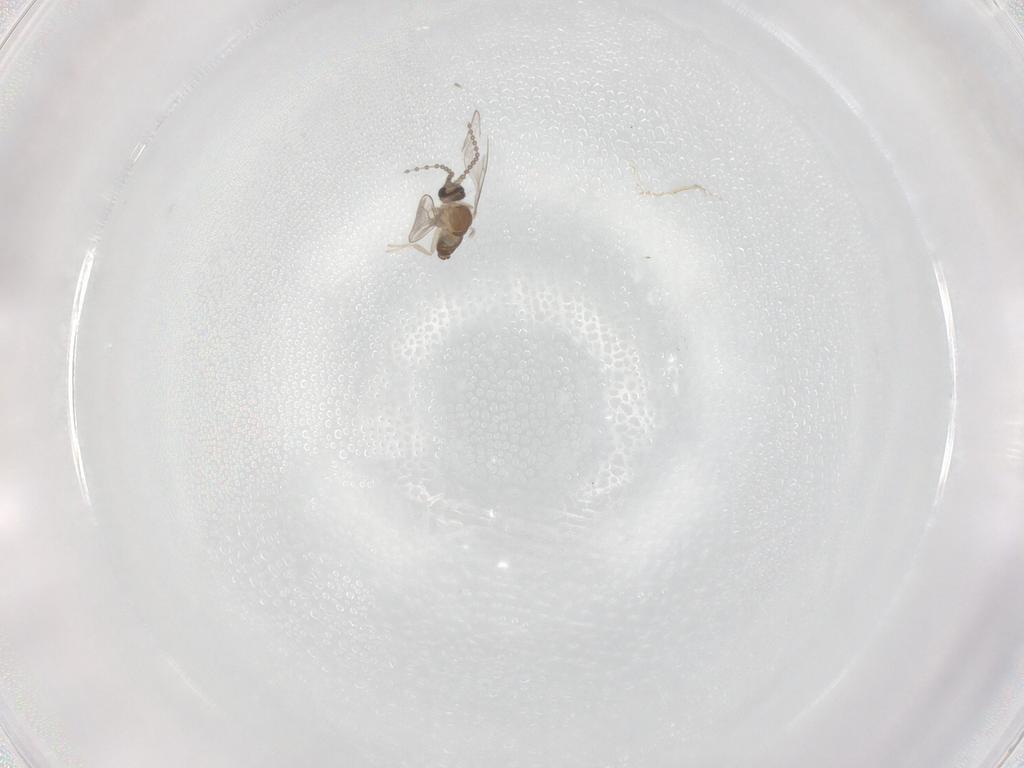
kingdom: Animalia
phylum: Arthropoda
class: Insecta
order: Diptera
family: Cecidomyiidae
